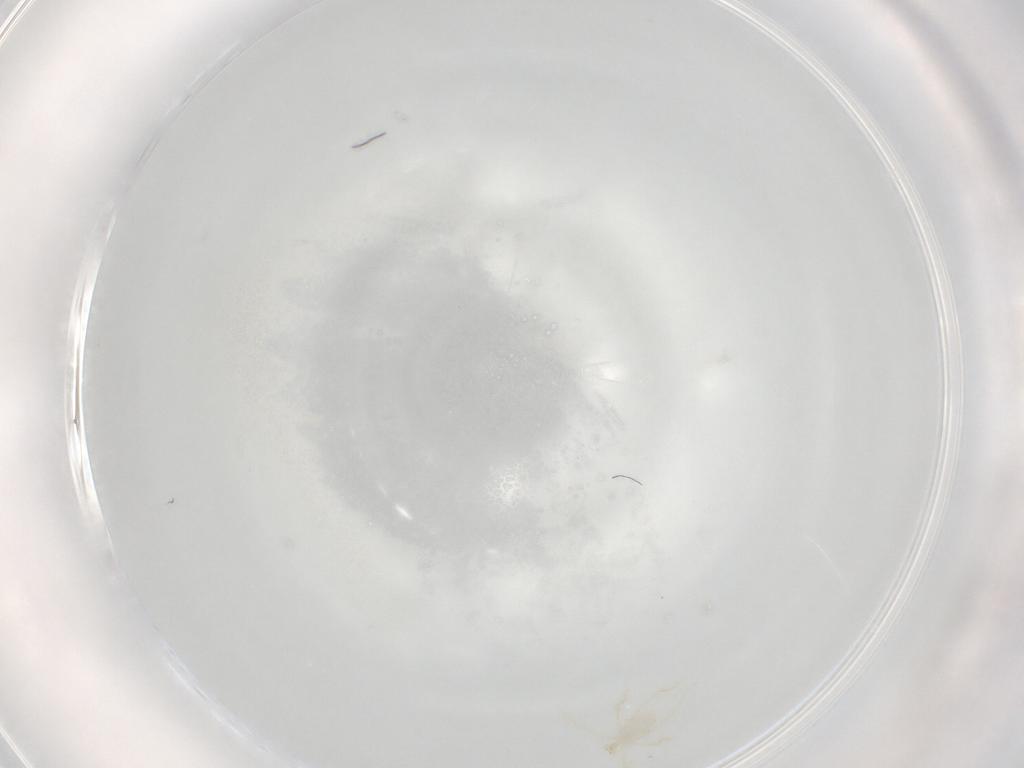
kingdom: Animalia
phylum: Arthropoda
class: Arachnida
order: Trombidiformes
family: Erythraeidae
